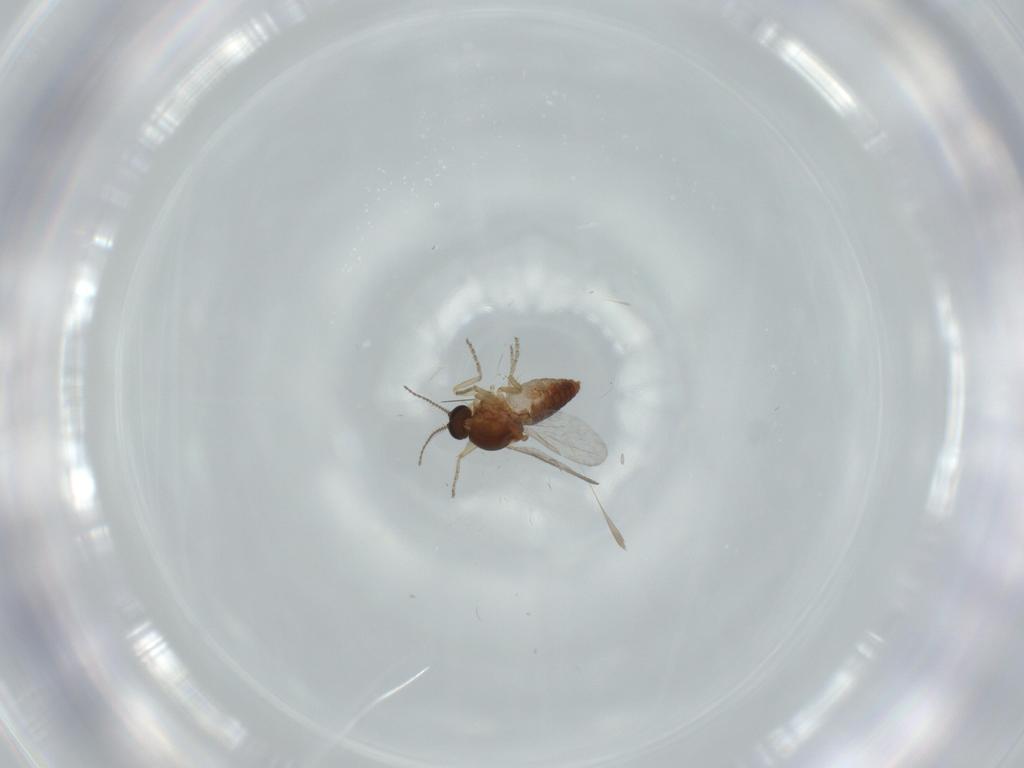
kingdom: Animalia
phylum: Arthropoda
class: Insecta
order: Diptera
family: Ceratopogonidae
